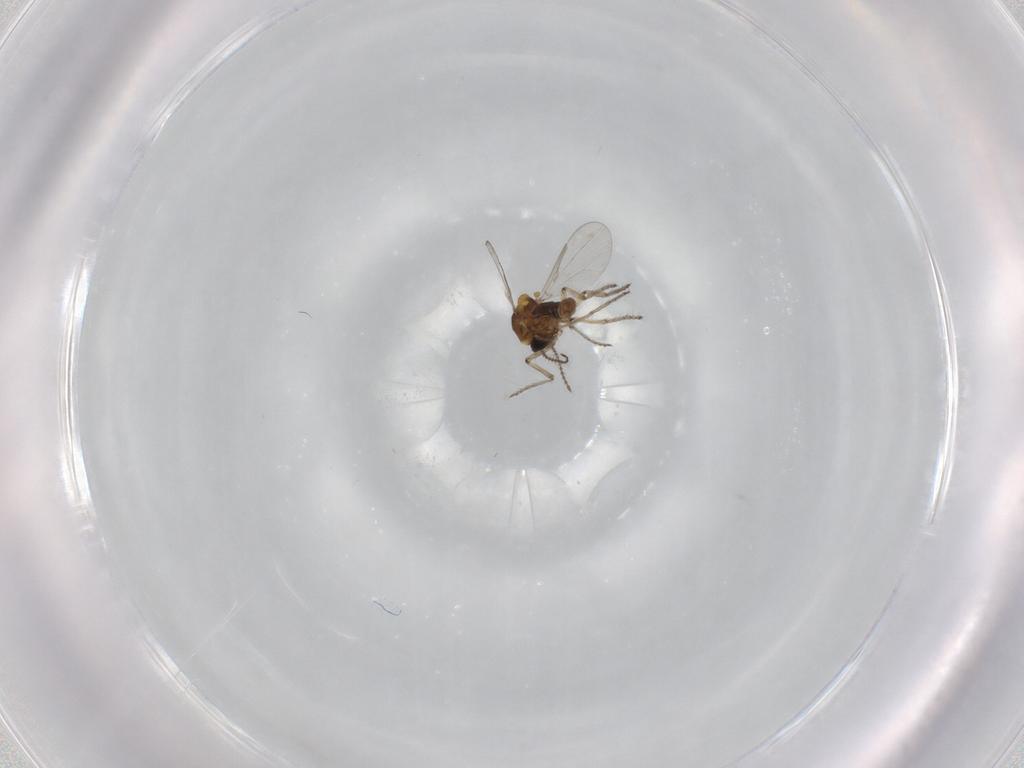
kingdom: Animalia
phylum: Arthropoda
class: Insecta
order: Diptera
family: Ceratopogonidae
